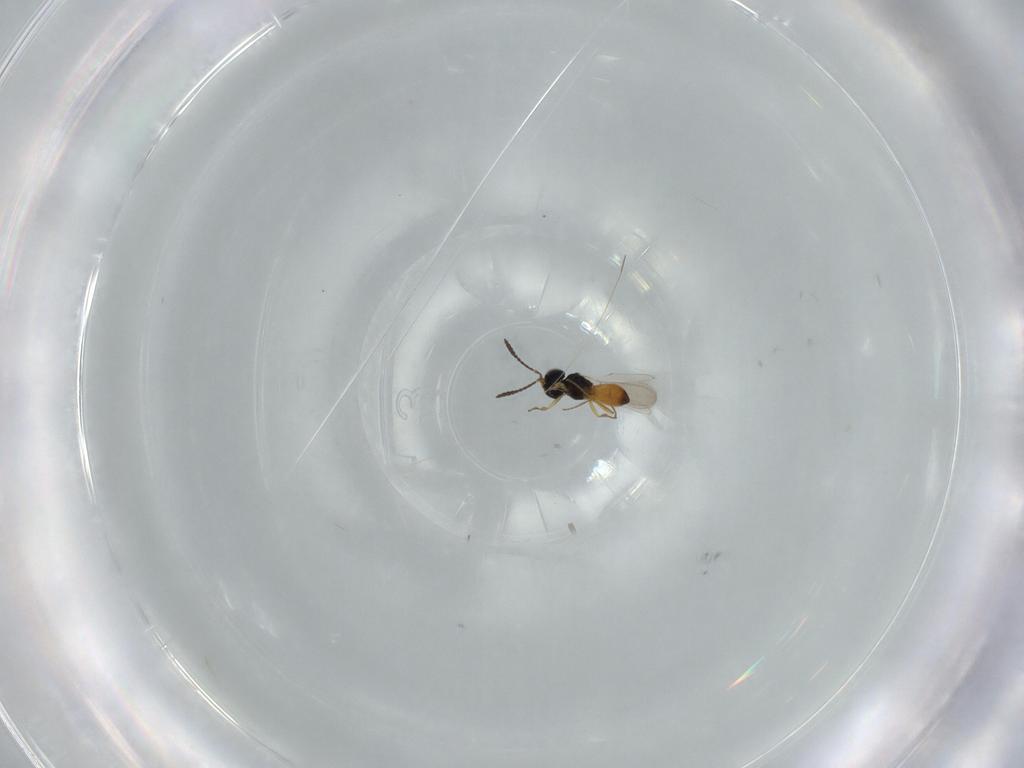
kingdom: Animalia
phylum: Arthropoda
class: Insecta
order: Hymenoptera
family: Scelionidae
